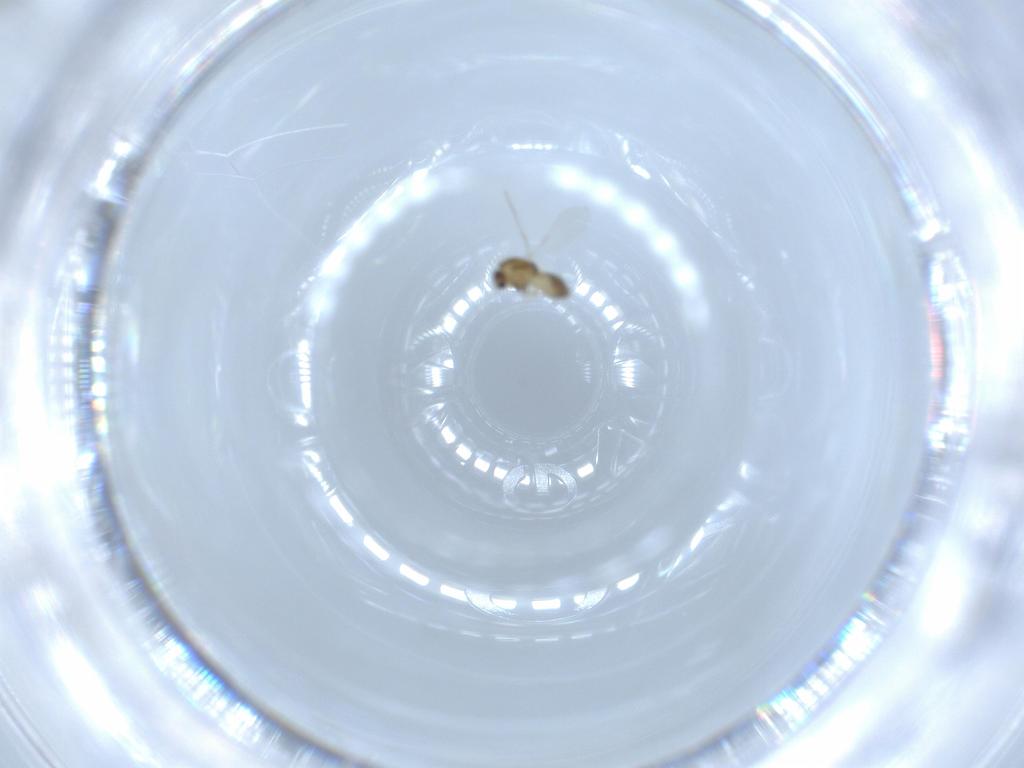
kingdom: Animalia
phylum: Arthropoda
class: Insecta
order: Diptera
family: Chironomidae
